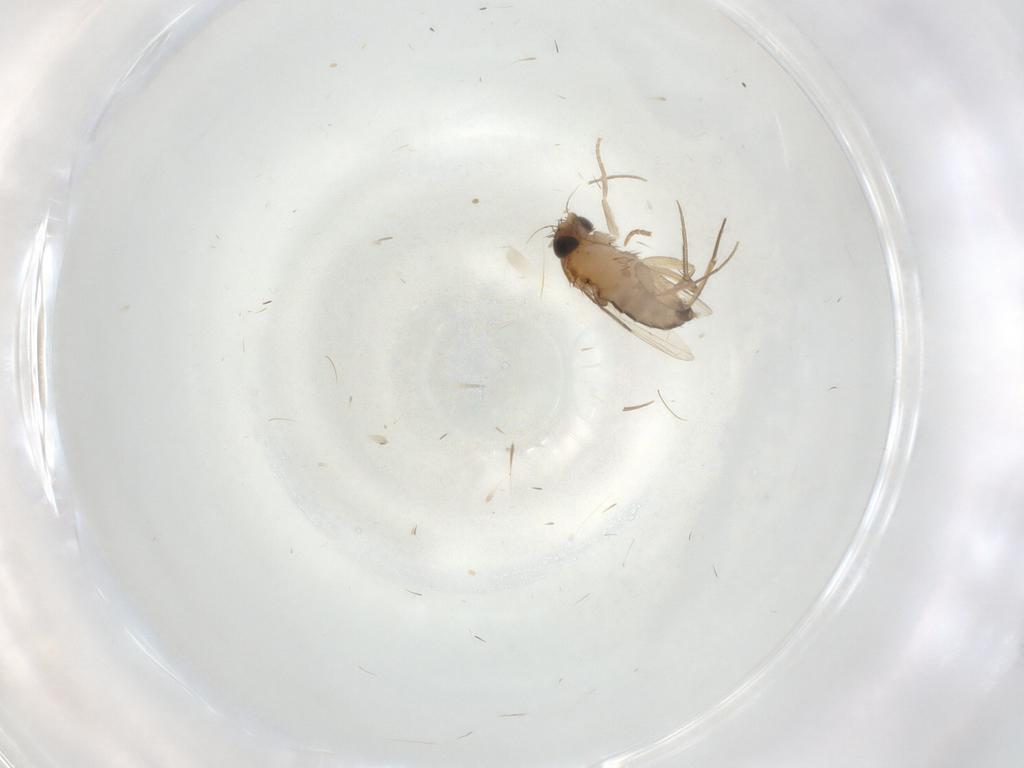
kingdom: Animalia
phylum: Arthropoda
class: Insecta
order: Diptera
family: Phoridae
